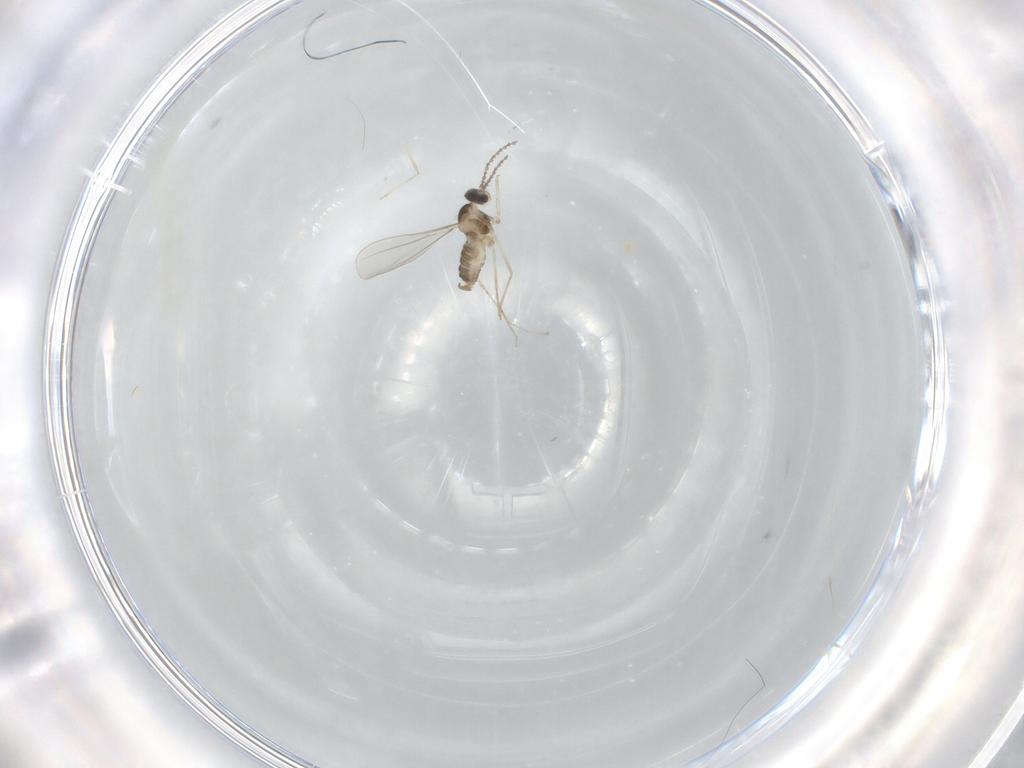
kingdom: Animalia
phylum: Arthropoda
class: Insecta
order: Diptera
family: Cecidomyiidae
